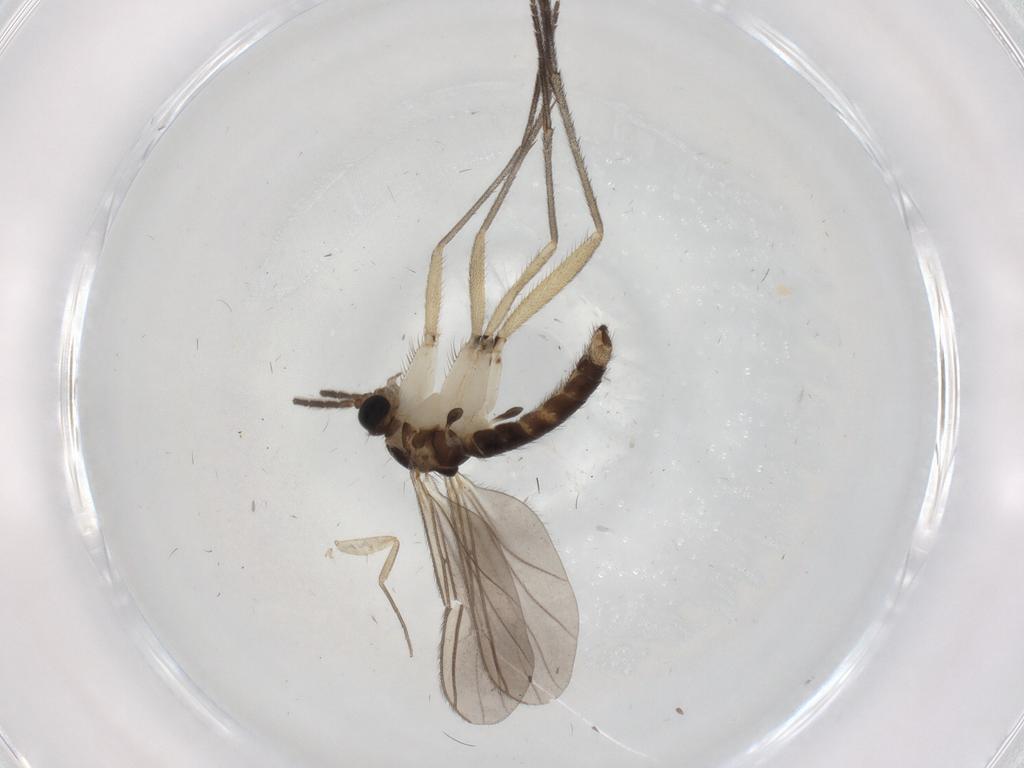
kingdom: Animalia
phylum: Arthropoda
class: Insecta
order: Diptera
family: Sciaridae
